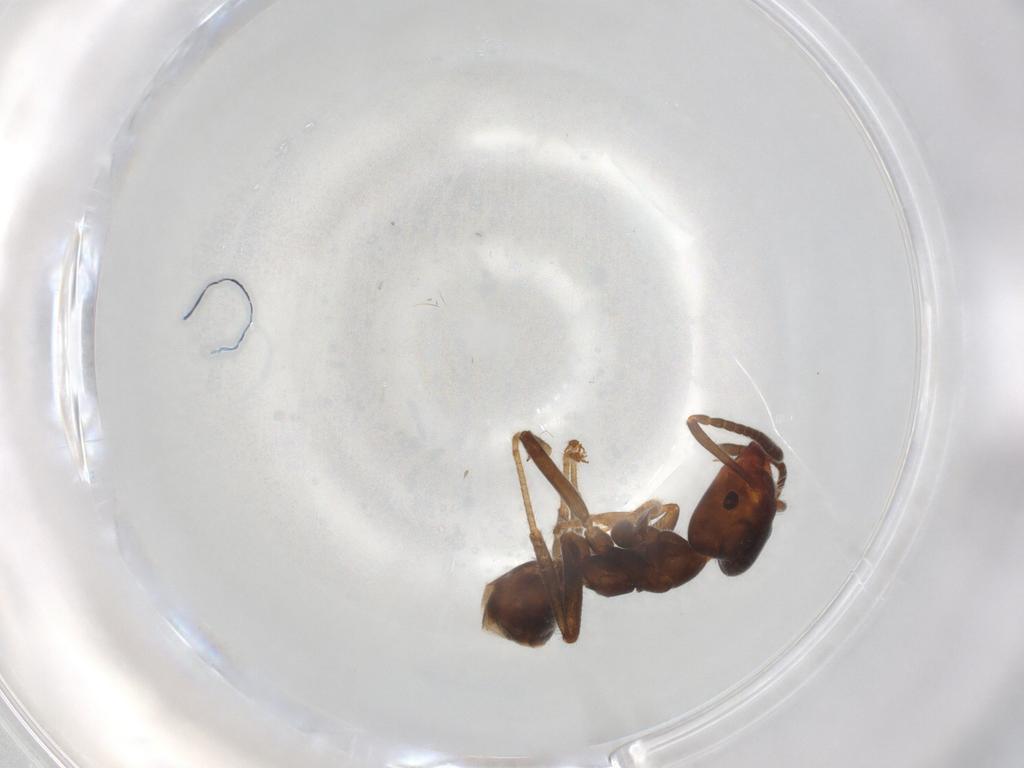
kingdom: Animalia
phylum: Arthropoda
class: Insecta
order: Hymenoptera
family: Formicidae
